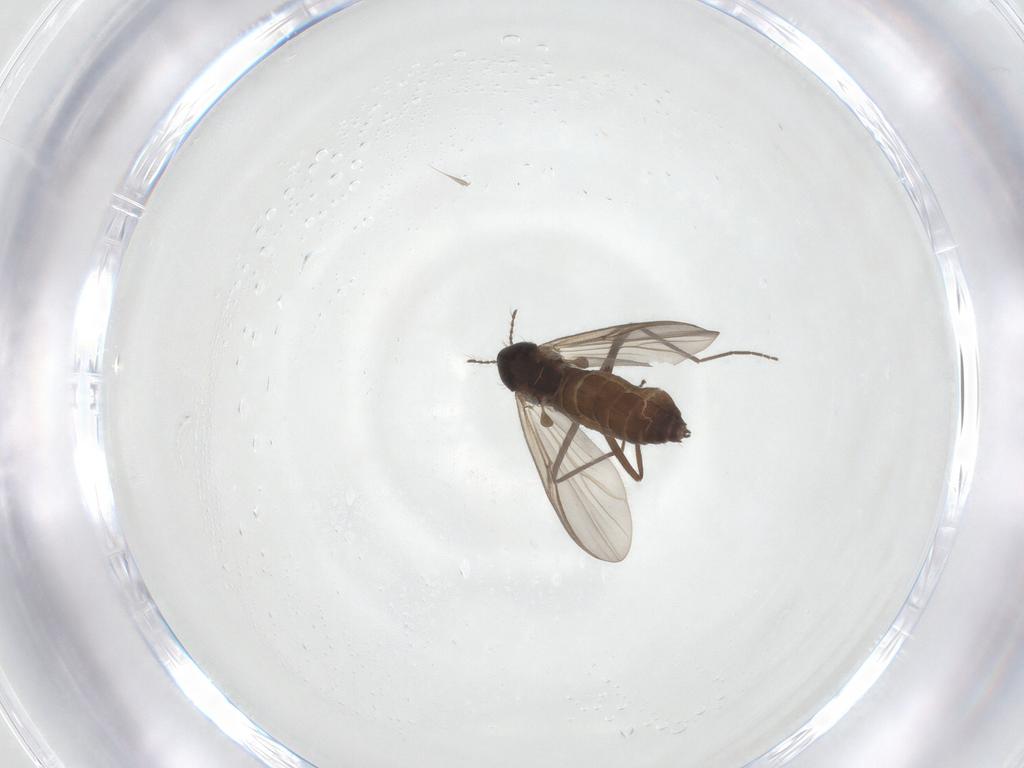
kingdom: Animalia
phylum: Arthropoda
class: Insecta
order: Diptera
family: Chironomidae
